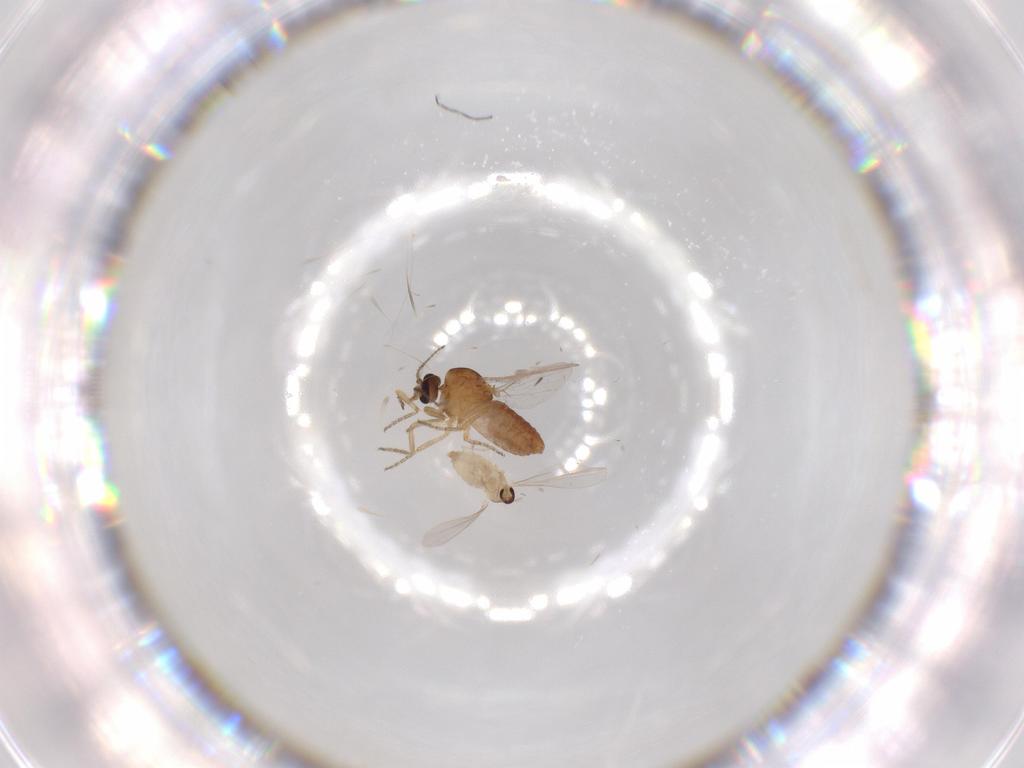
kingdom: Animalia
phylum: Arthropoda
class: Insecta
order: Diptera
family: Cecidomyiidae
